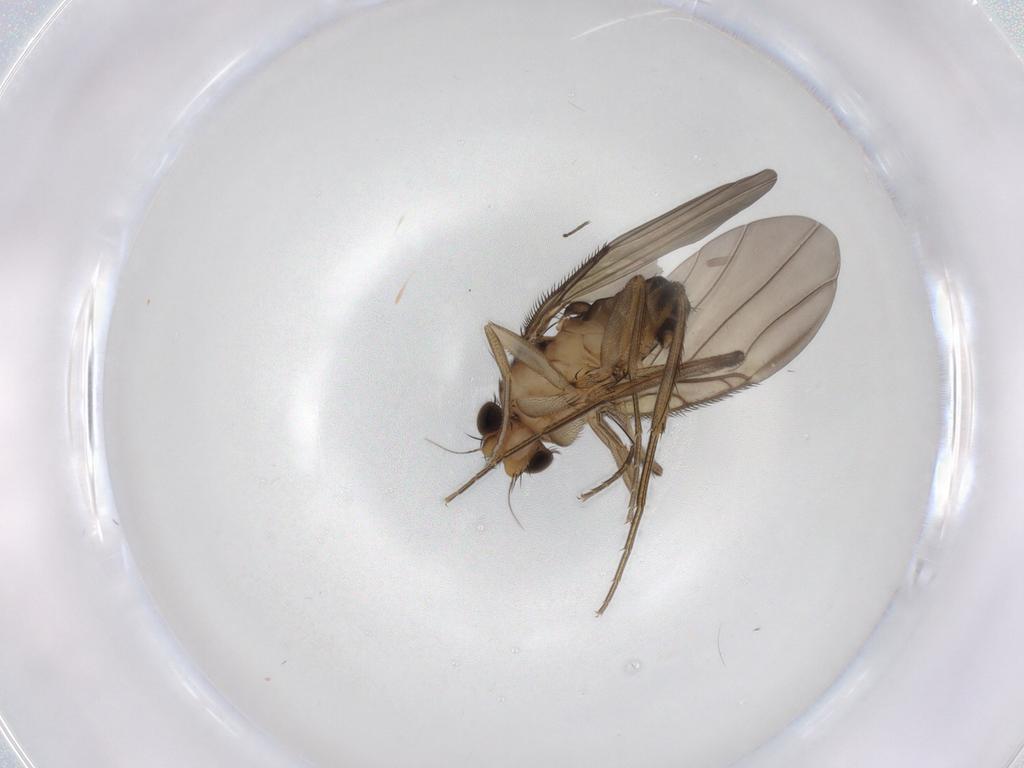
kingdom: Animalia
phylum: Arthropoda
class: Insecta
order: Diptera
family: Phoridae
